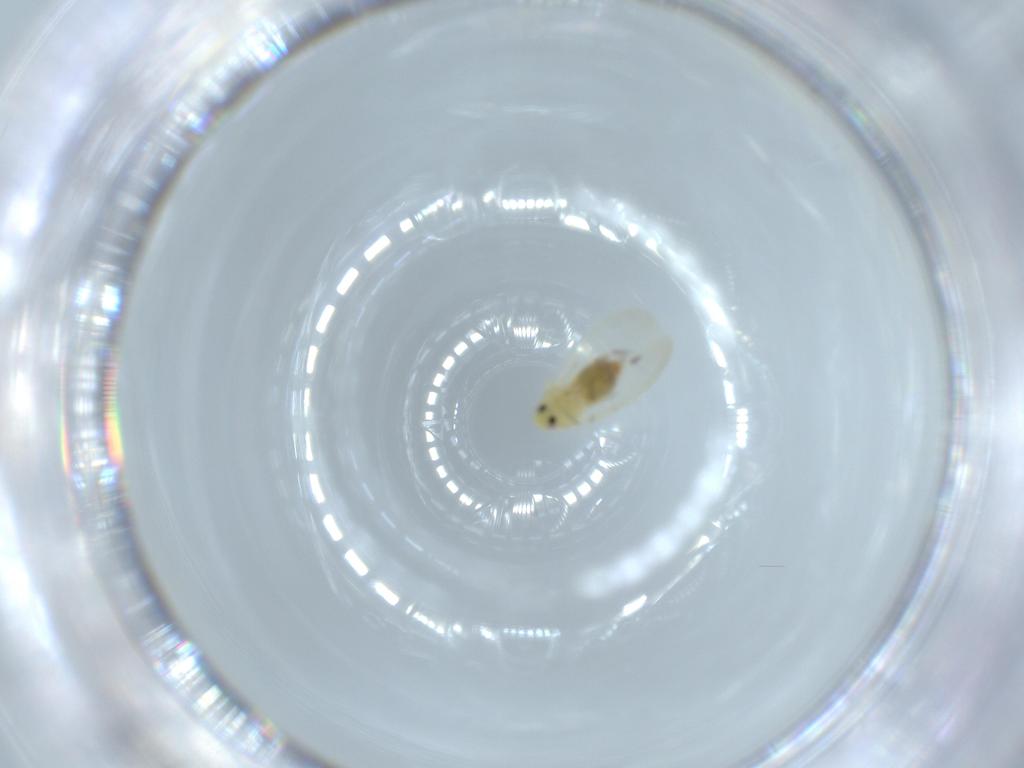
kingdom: Animalia
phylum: Arthropoda
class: Insecta
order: Hemiptera
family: Aleyrodidae
